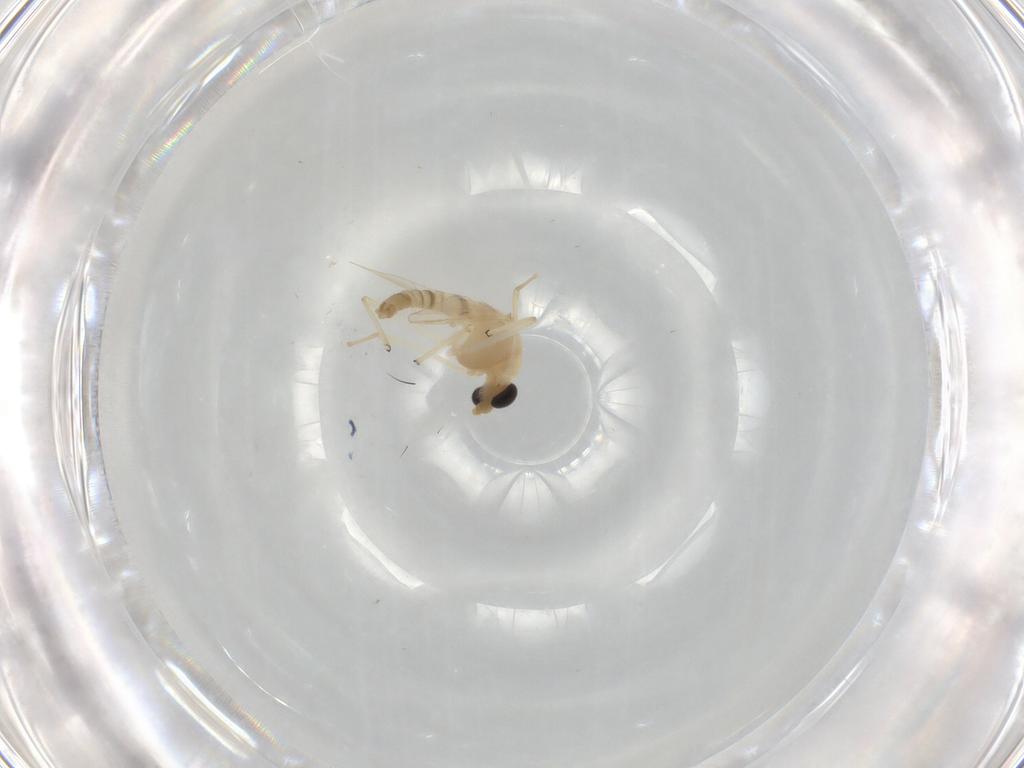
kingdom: Animalia
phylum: Arthropoda
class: Insecta
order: Diptera
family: Chironomidae
